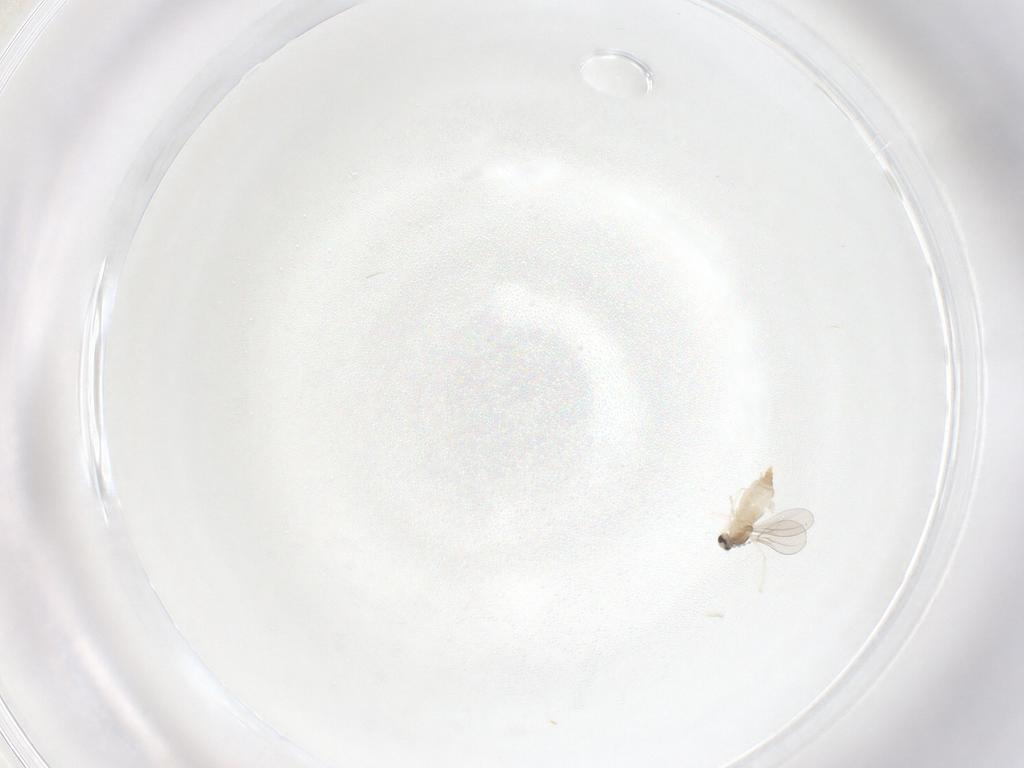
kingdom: Animalia
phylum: Arthropoda
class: Insecta
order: Diptera
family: Cecidomyiidae
